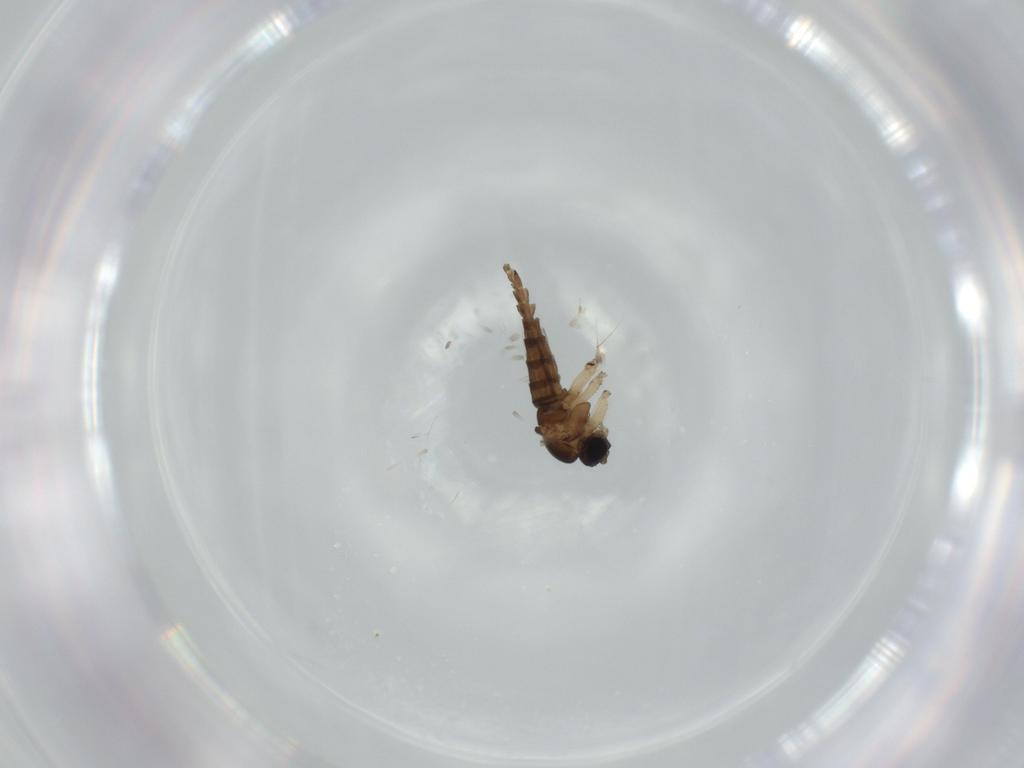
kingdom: Animalia
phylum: Arthropoda
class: Insecta
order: Diptera
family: Sciaridae
